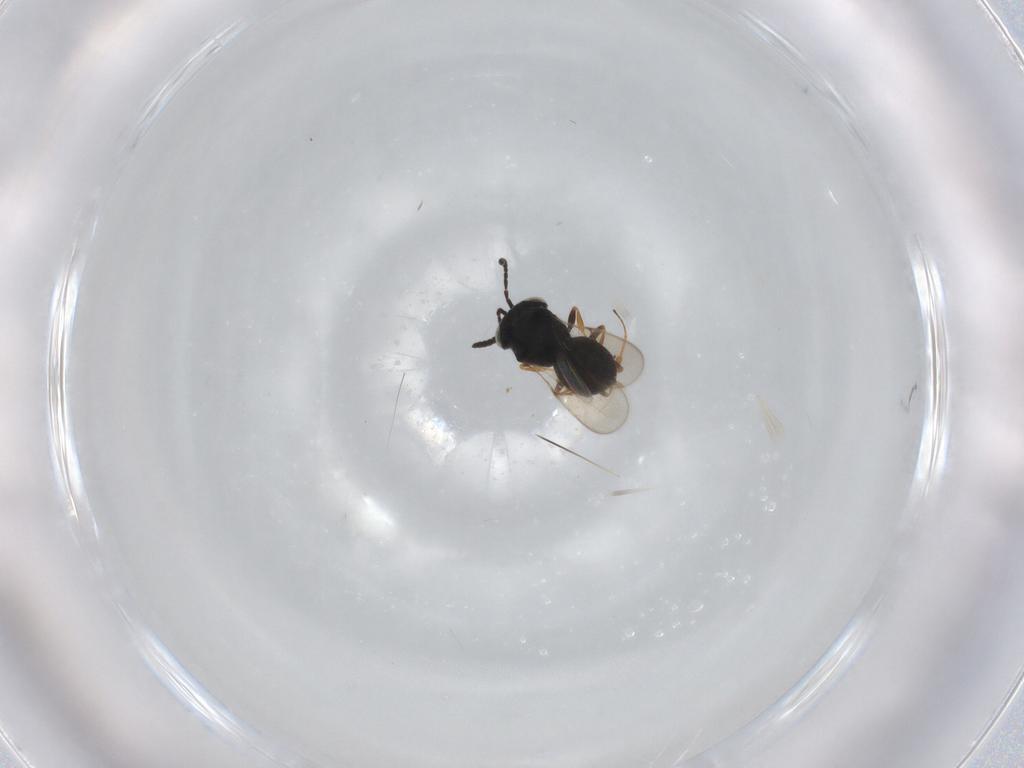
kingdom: Animalia
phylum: Arthropoda
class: Insecta
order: Hymenoptera
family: Scelionidae
